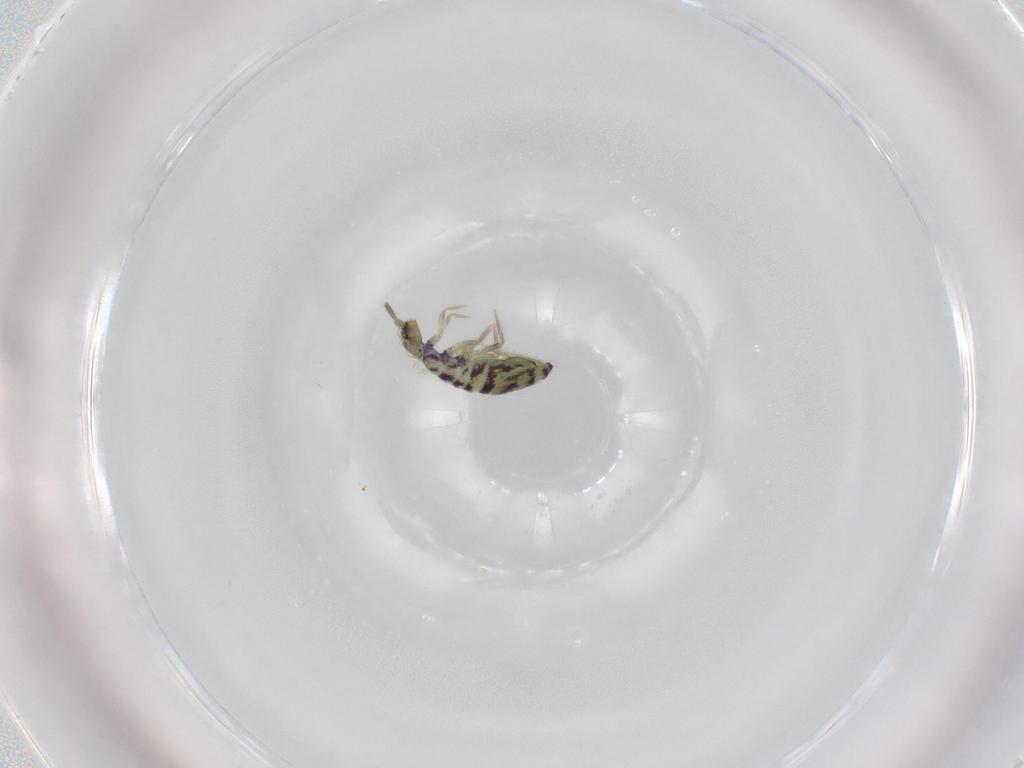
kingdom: Animalia
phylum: Arthropoda
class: Collembola
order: Entomobryomorpha
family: Entomobryidae
